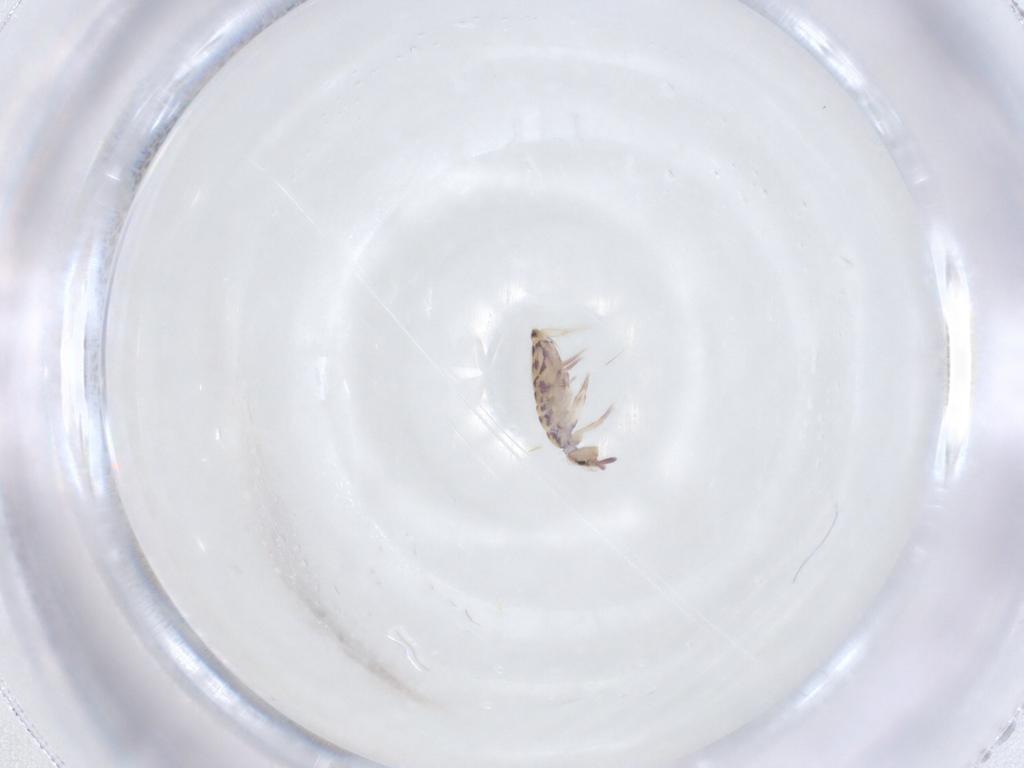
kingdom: Animalia
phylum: Arthropoda
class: Collembola
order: Entomobryomorpha
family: Entomobryidae
